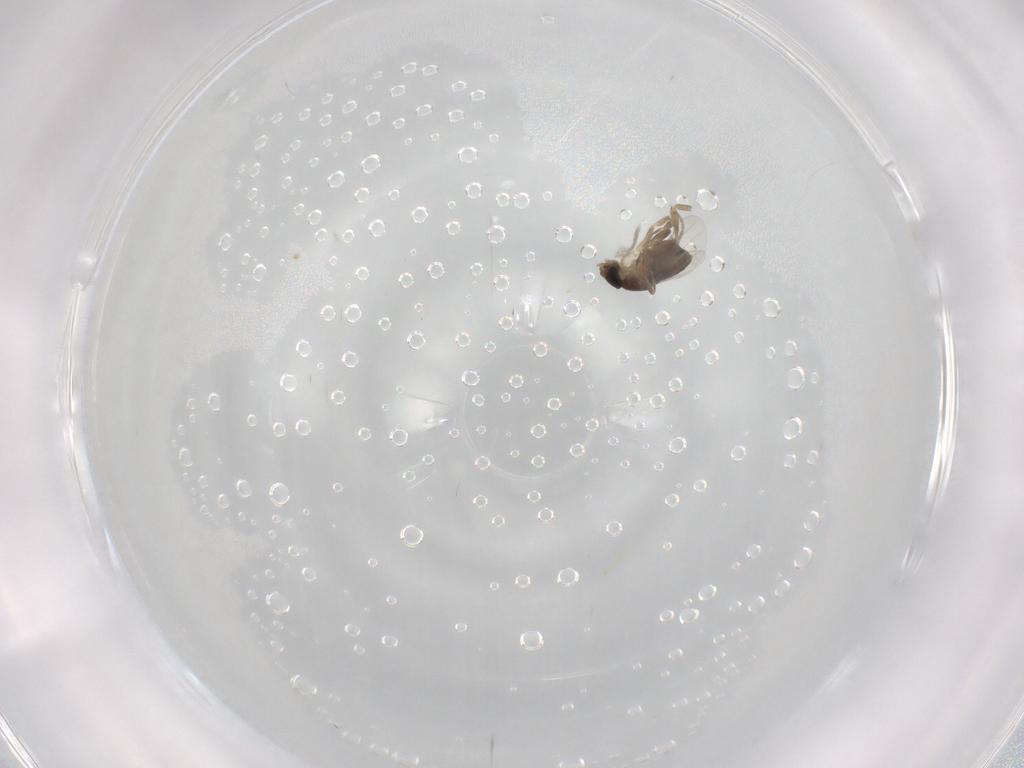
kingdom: Animalia
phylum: Arthropoda
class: Insecta
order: Diptera
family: Phoridae
